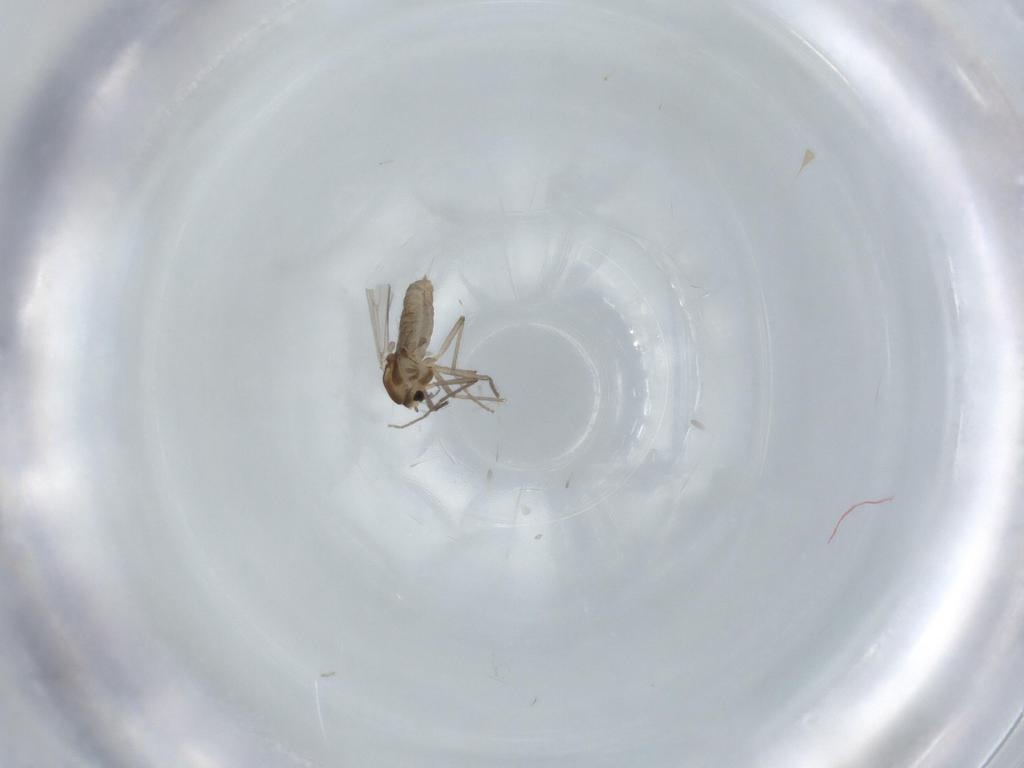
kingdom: Animalia
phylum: Arthropoda
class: Insecta
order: Diptera
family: Chironomidae
